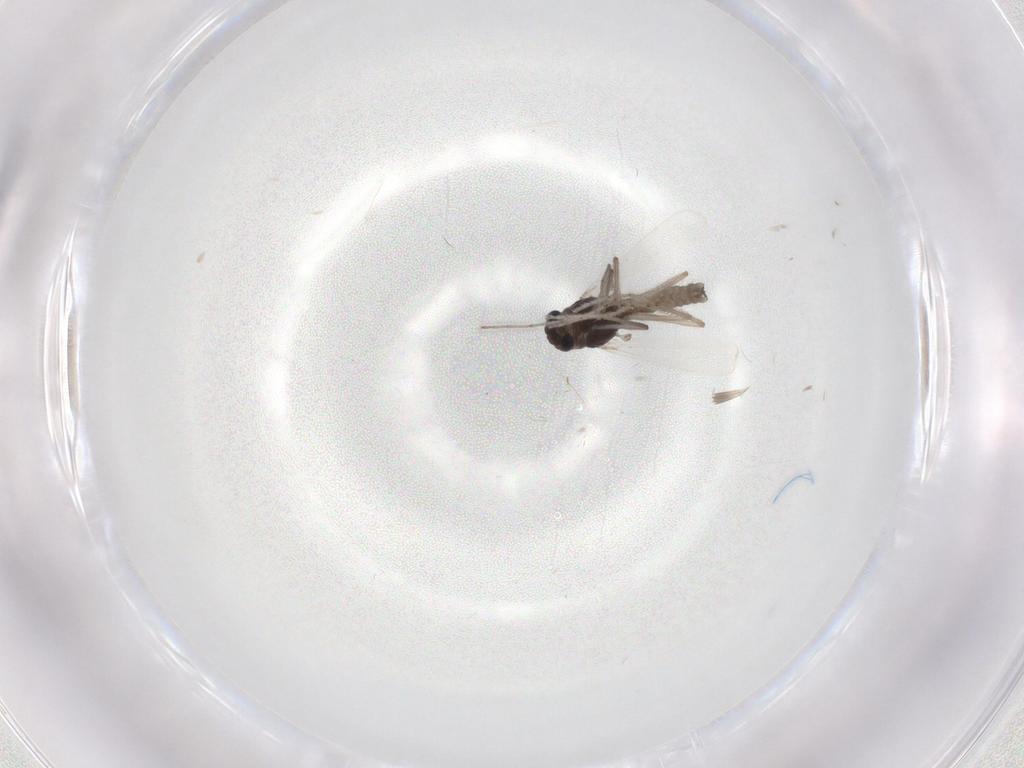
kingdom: Animalia
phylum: Arthropoda
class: Insecta
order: Diptera
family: Chironomidae
